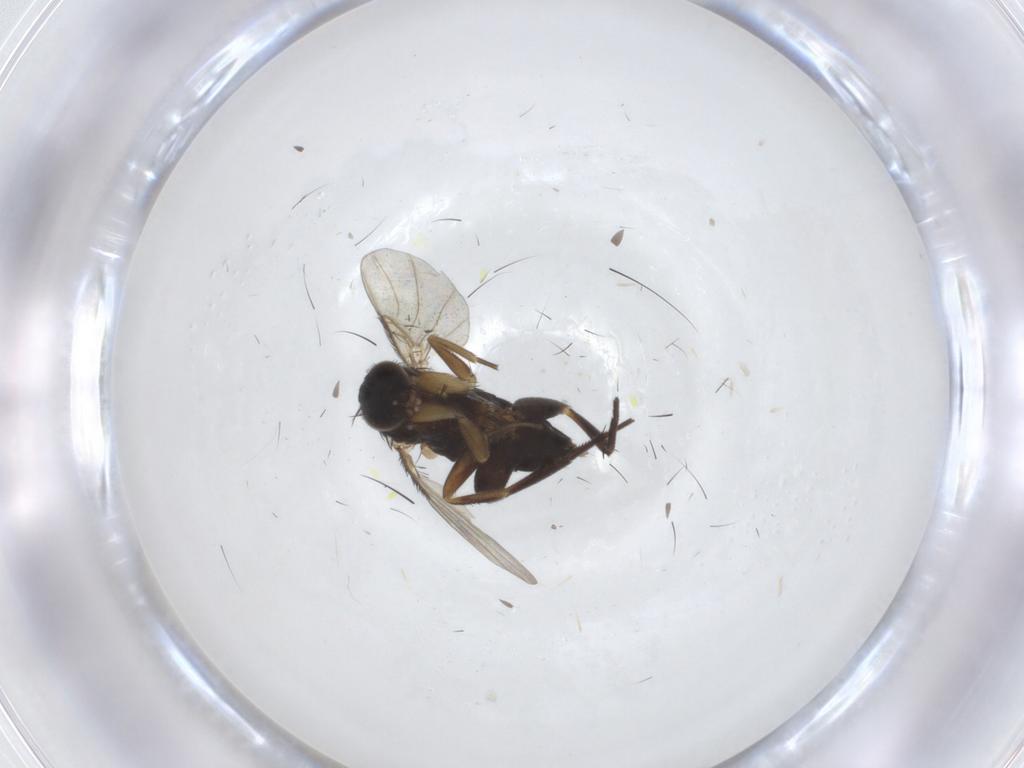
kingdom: Animalia
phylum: Arthropoda
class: Insecta
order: Diptera
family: Phoridae
